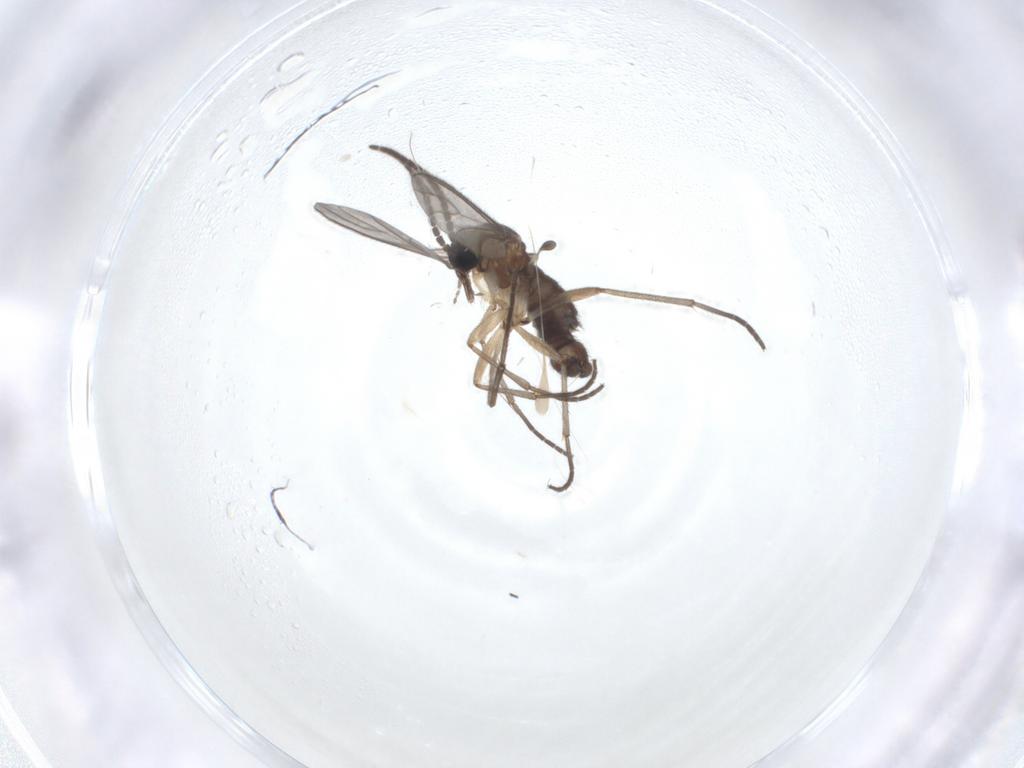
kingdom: Animalia
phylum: Arthropoda
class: Insecta
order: Diptera
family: Sciaridae
